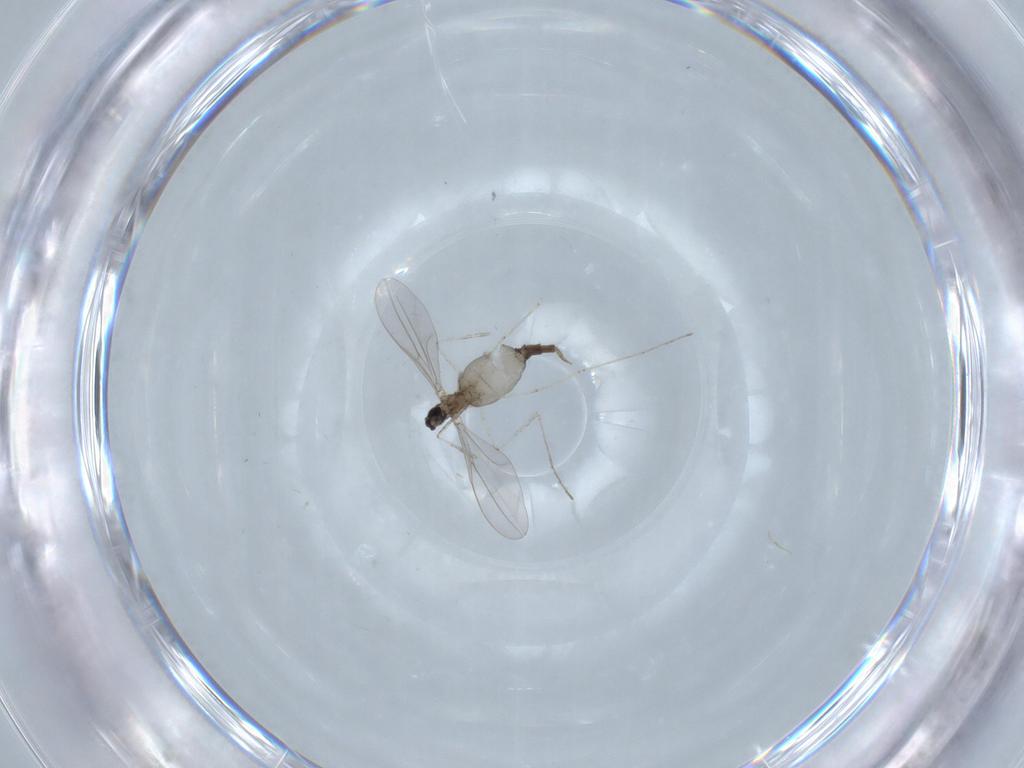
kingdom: Animalia
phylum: Arthropoda
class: Insecta
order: Diptera
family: Cecidomyiidae
